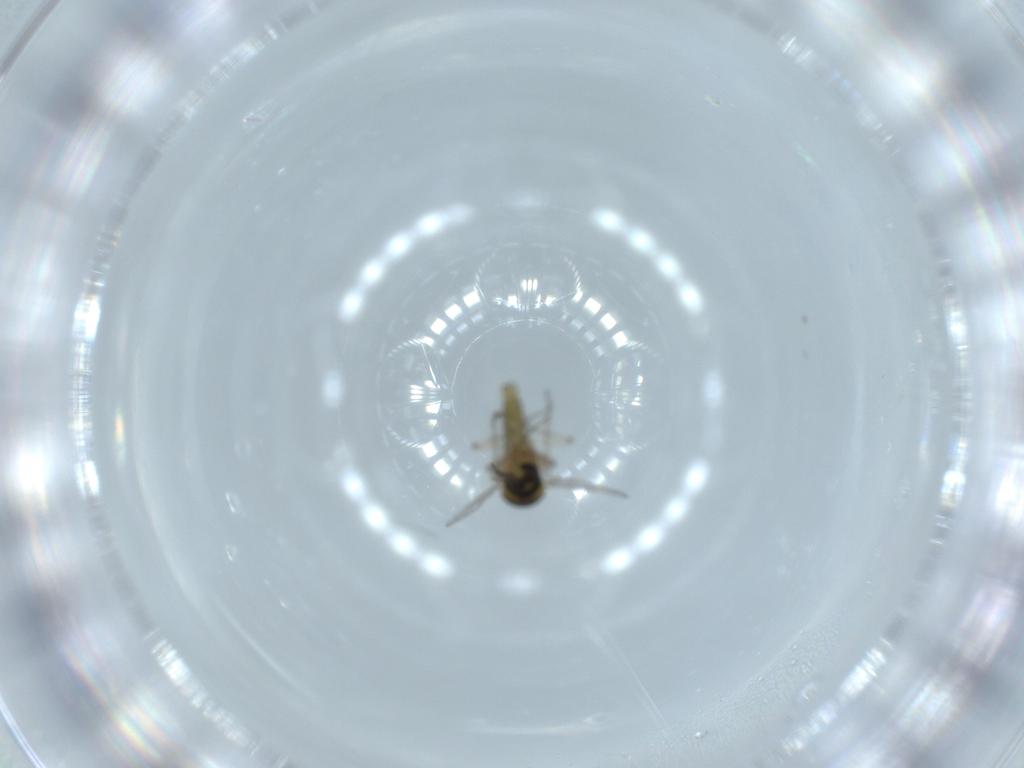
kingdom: Animalia
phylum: Arthropoda
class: Insecta
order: Diptera
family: Ceratopogonidae
